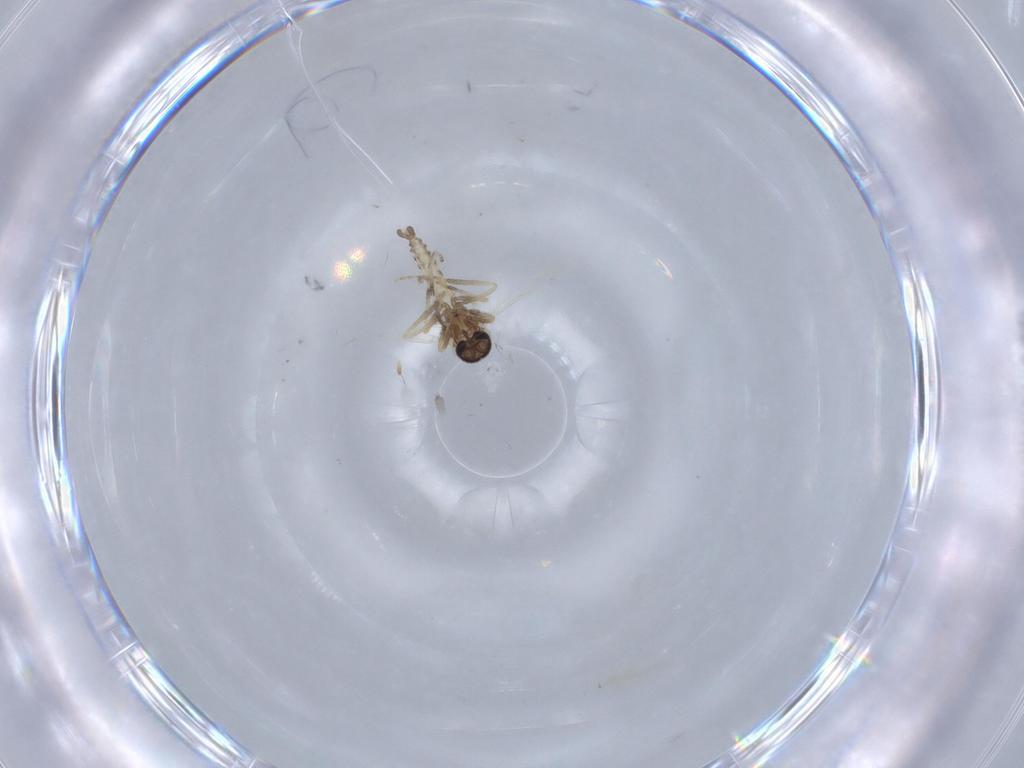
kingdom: Animalia
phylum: Arthropoda
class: Insecta
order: Diptera
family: Cecidomyiidae
